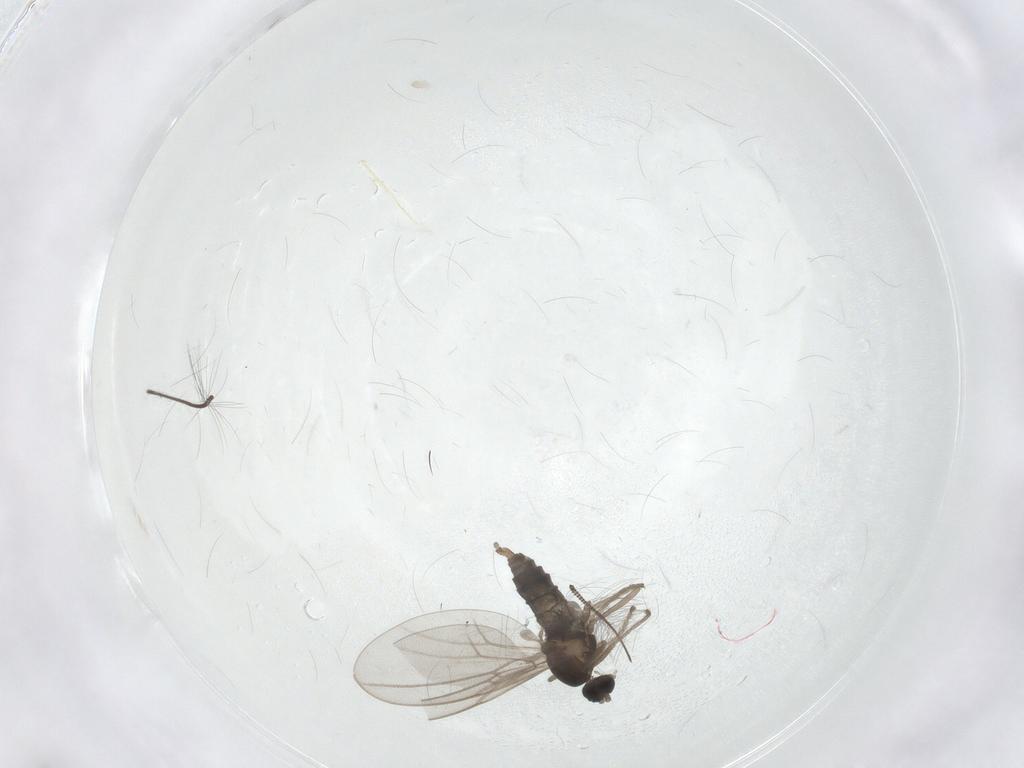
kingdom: Animalia
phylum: Arthropoda
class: Insecta
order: Diptera
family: Cecidomyiidae
